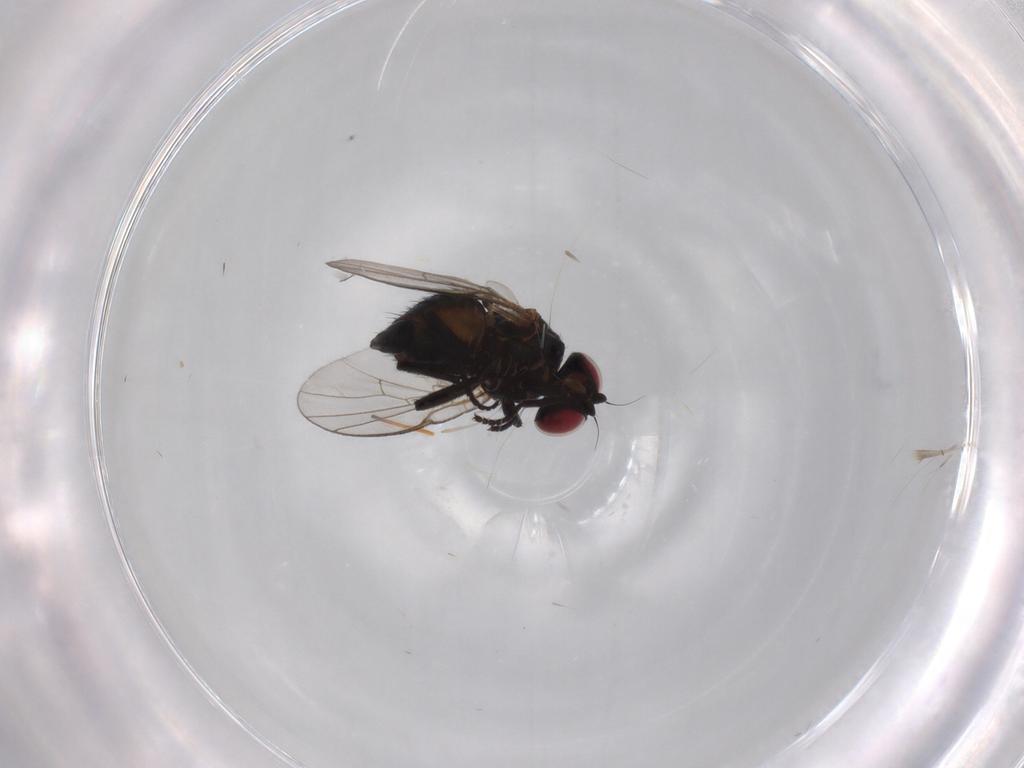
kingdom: Animalia
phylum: Arthropoda
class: Insecta
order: Diptera
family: Agromyzidae
